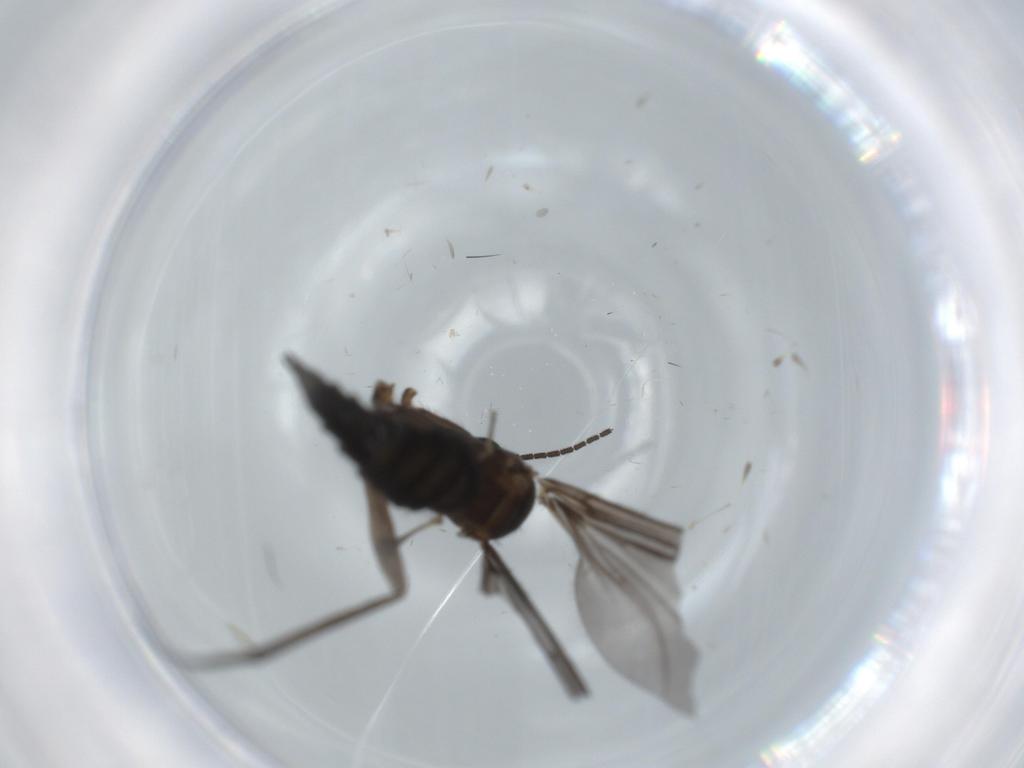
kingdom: Animalia
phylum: Arthropoda
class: Insecta
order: Diptera
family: Sciaridae
